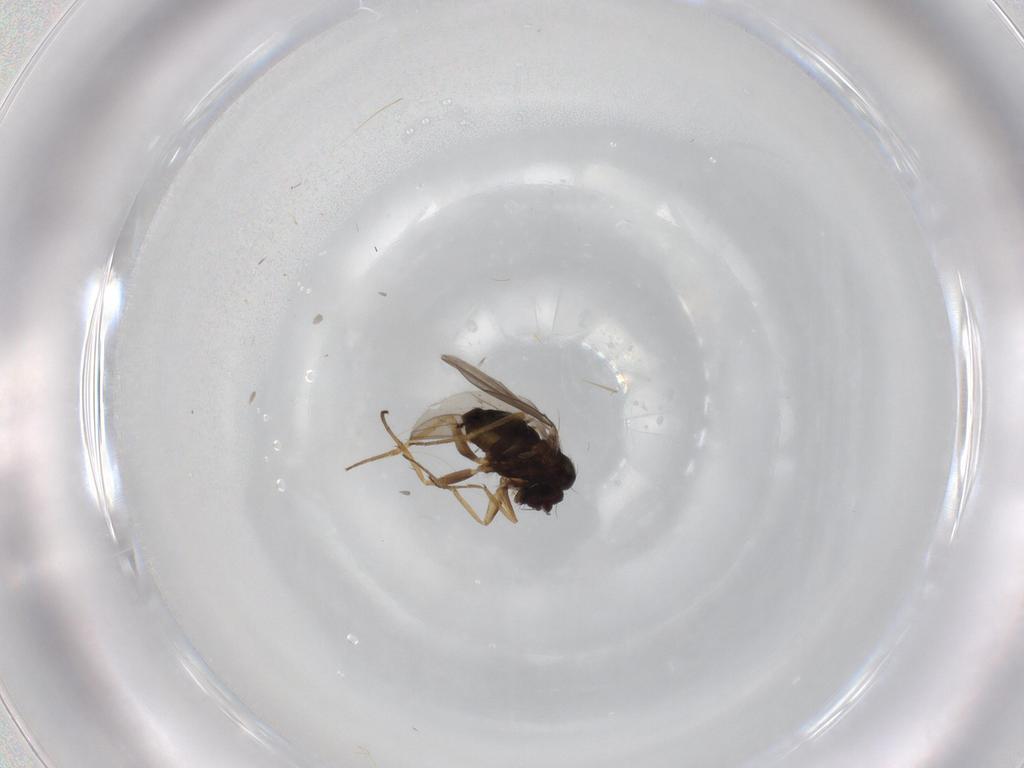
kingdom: Animalia
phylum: Arthropoda
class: Insecta
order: Diptera
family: Dolichopodidae
